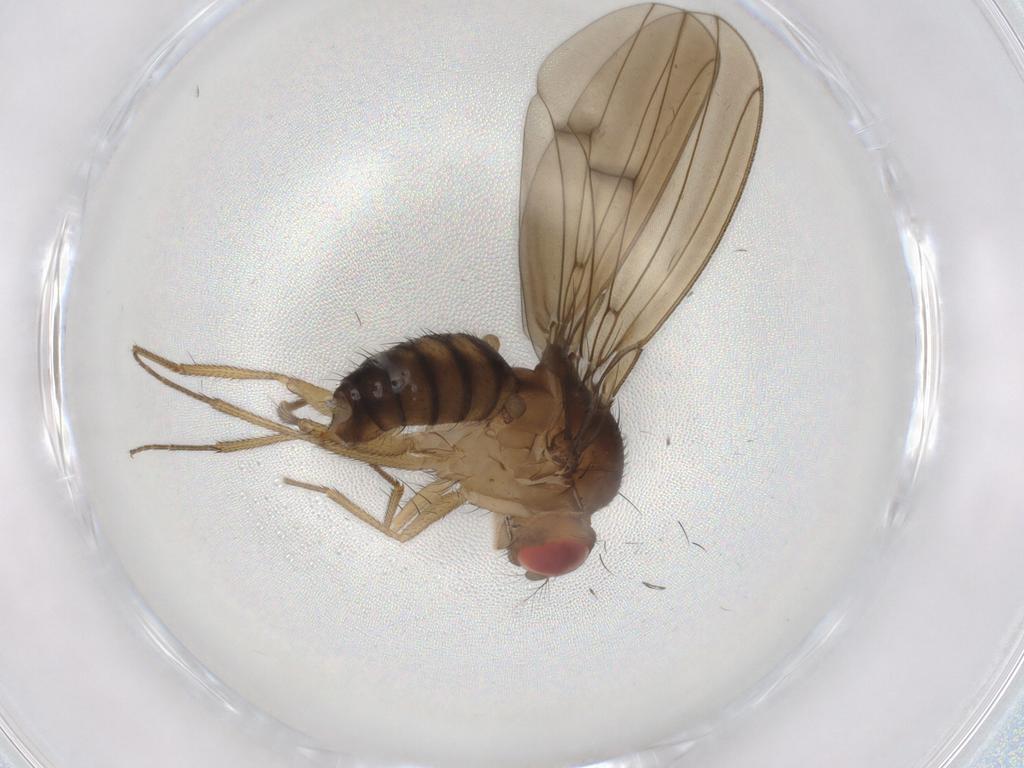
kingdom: Animalia
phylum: Arthropoda
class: Insecta
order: Diptera
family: Drosophilidae
